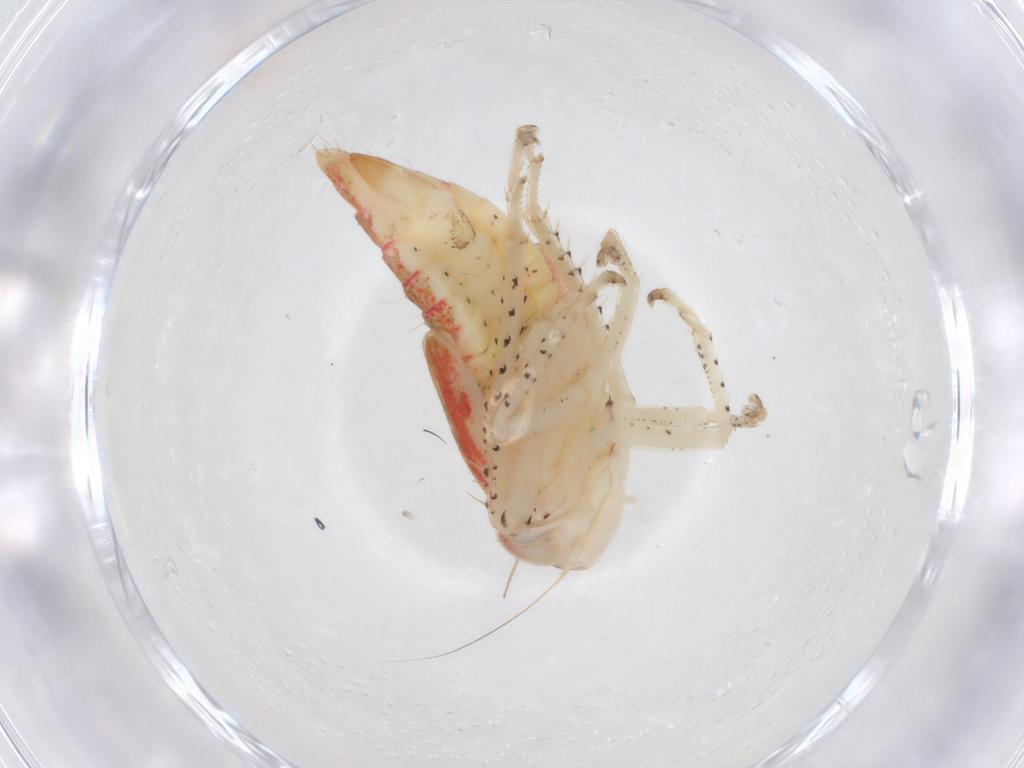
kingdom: Animalia
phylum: Arthropoda
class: Insecta
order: Hemiptera
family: Cicadellidae
